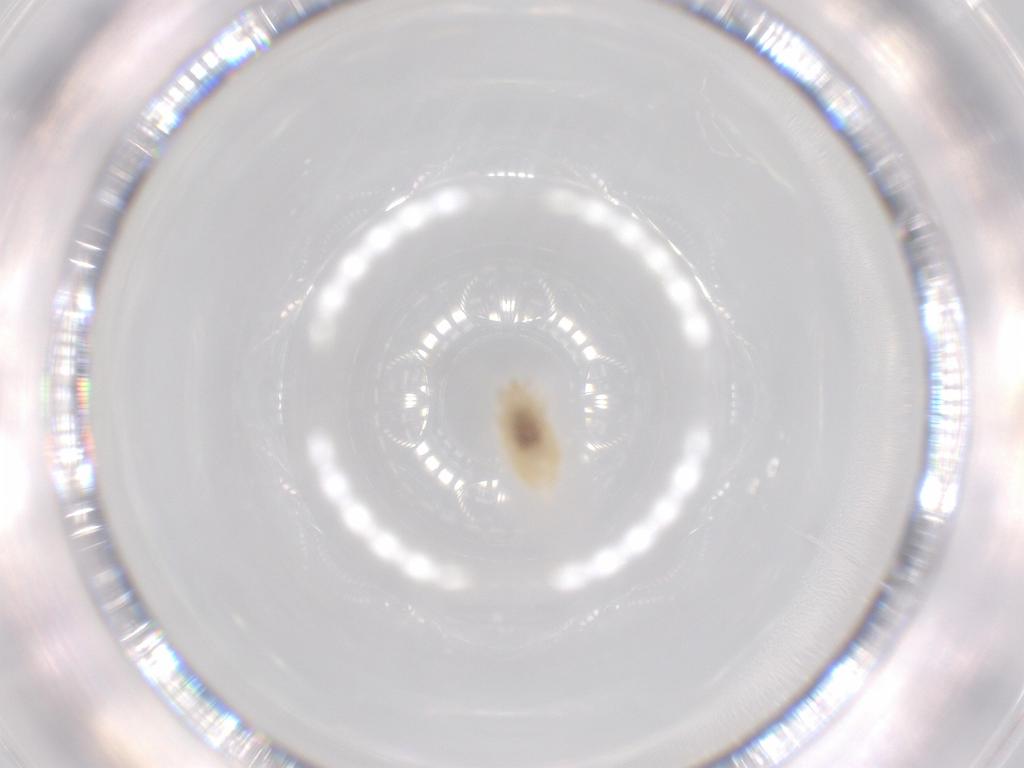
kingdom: Animalia
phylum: Arthropoda
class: Insecta
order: Neuroptera
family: Coniopterygidae
